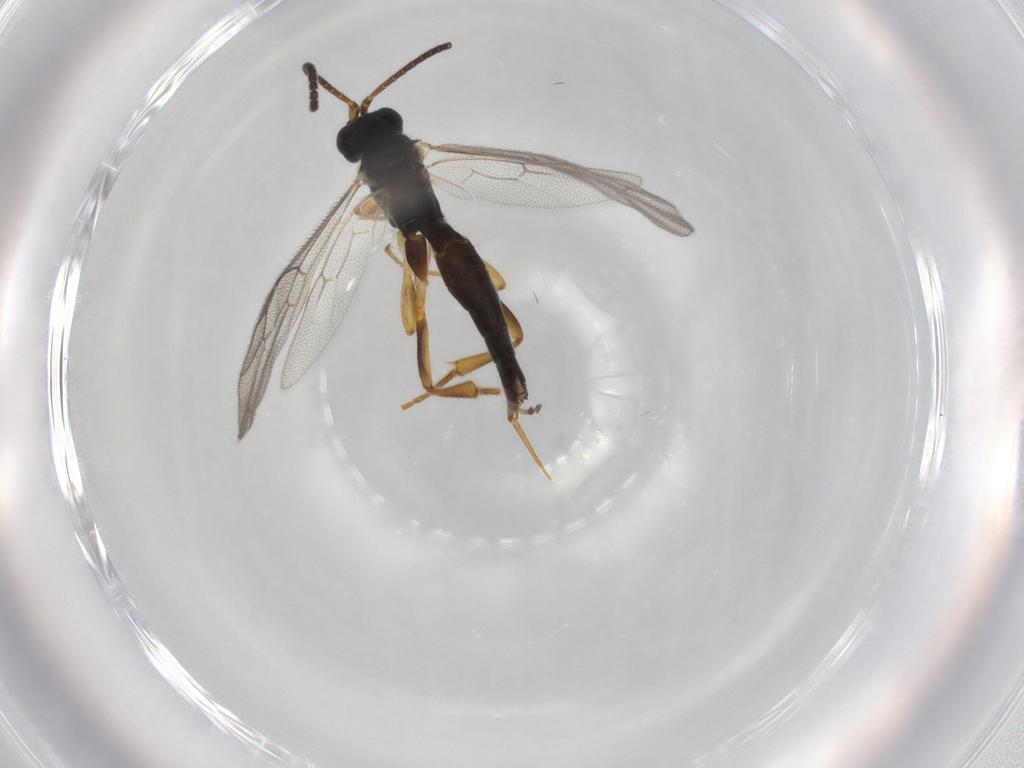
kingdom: Animalia
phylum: Arthropoda
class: Insecta
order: Hymenoptera
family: Ichneumonidae
